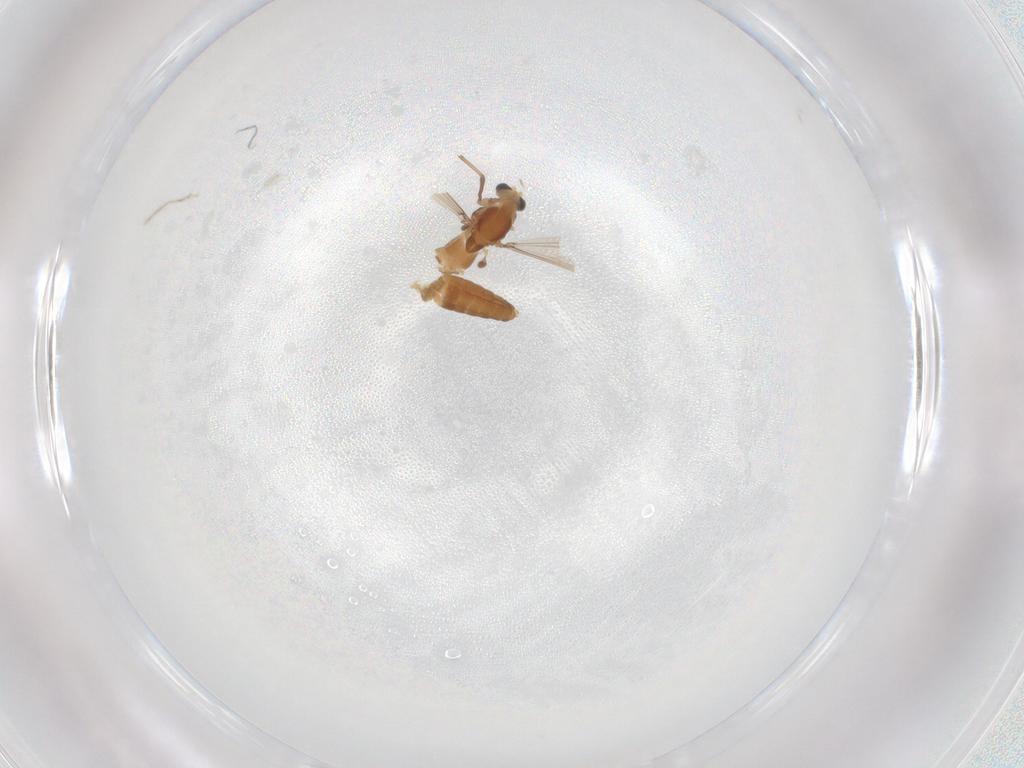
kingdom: Animalia
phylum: Arthropoda
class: Insecta
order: Diptera
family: Chironomidae
